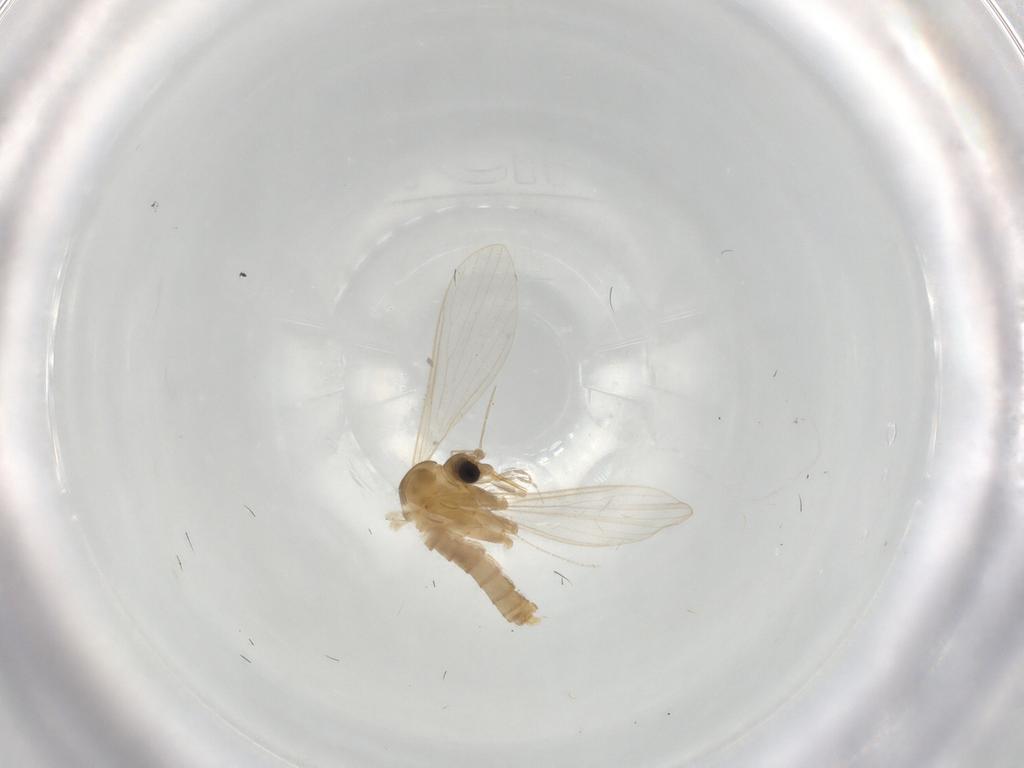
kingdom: Animalia
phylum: Arthropoda
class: Insecta
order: Diptera
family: Psychodidae
